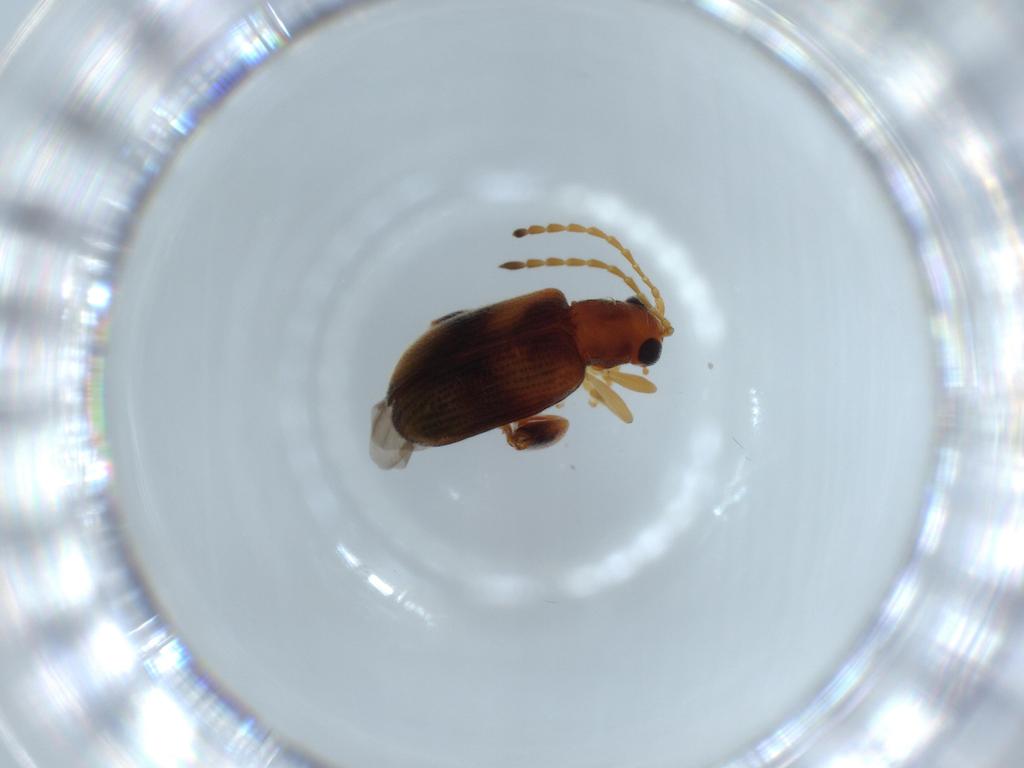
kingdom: Animalia
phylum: Arthropoda
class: Insecta
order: Coleoptera
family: Chrysomelidae
